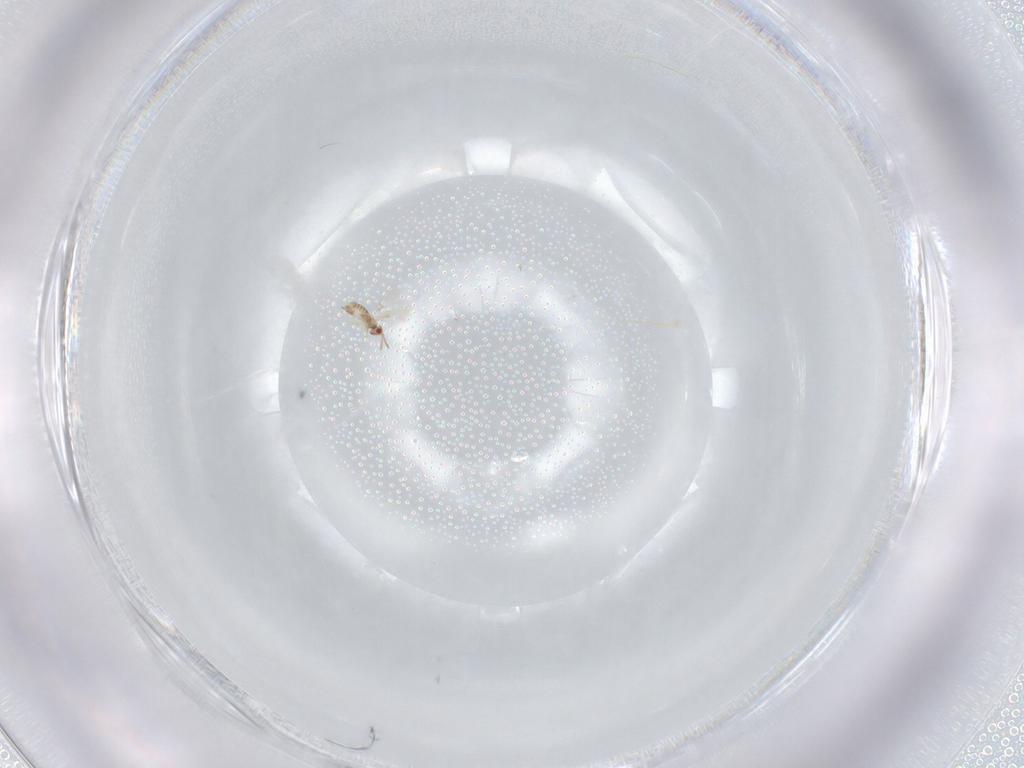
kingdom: Animalia
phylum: Arthropoda
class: Insecta
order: Hymenoptera
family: Aphelinidae
